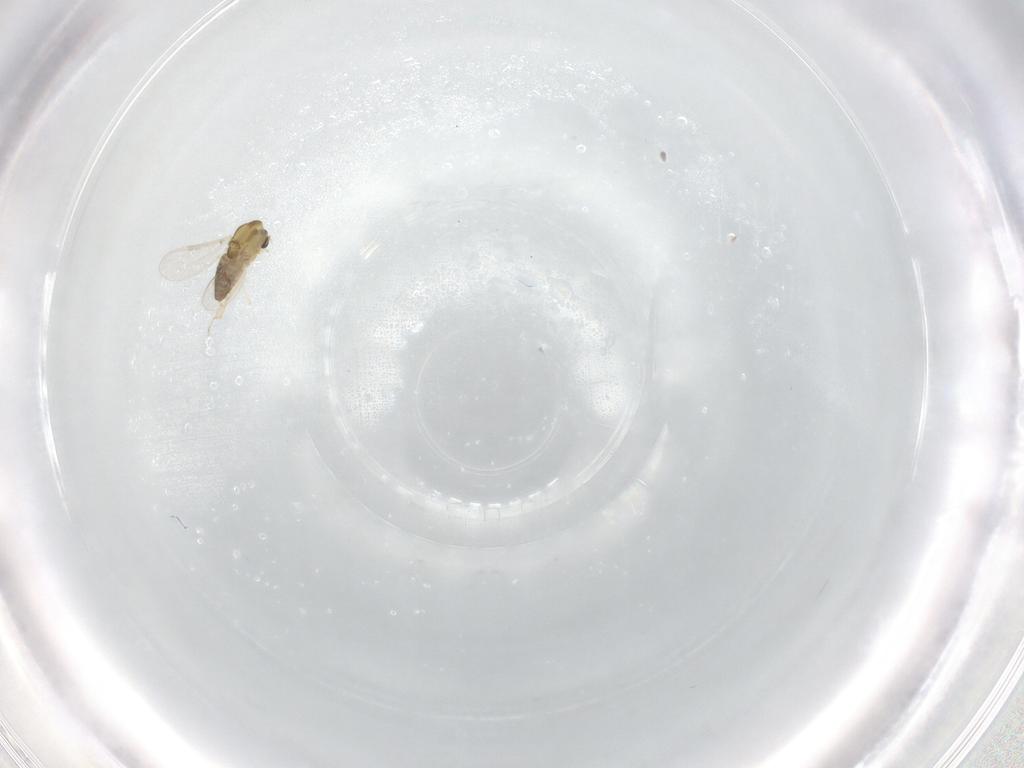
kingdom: Animalia
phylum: Arthropoda
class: Insecta
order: Diptera
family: Chironomidae
